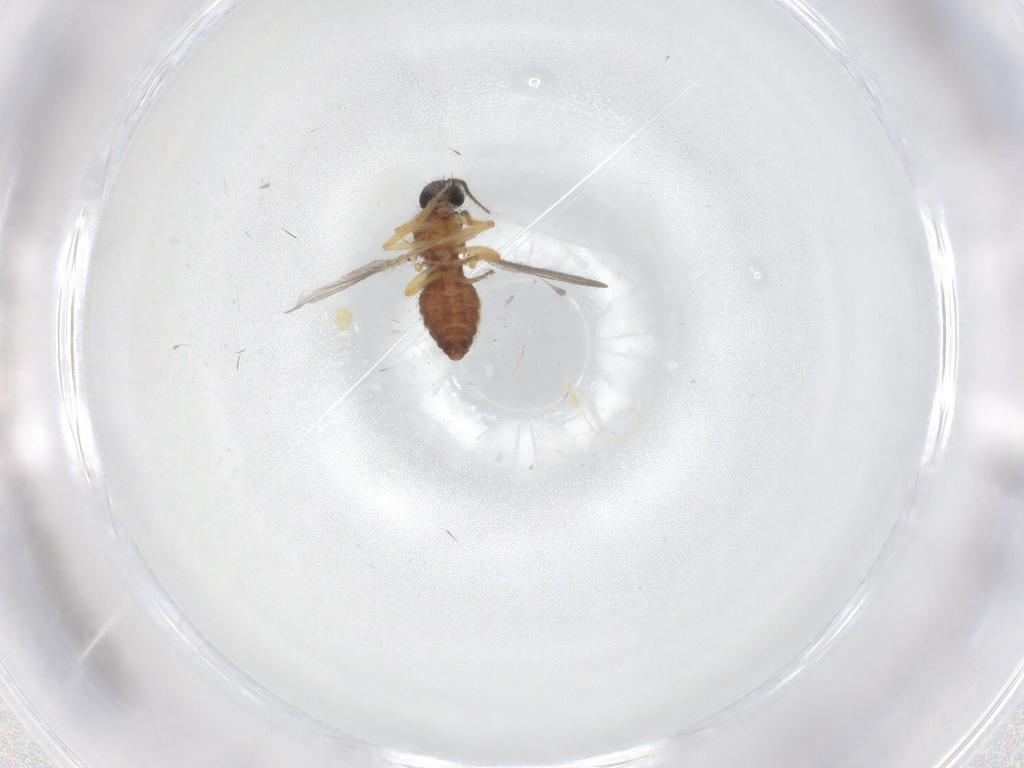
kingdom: Animalia
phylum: Arthropoda
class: Insecta
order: Diptera
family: Ceratopogonidae
